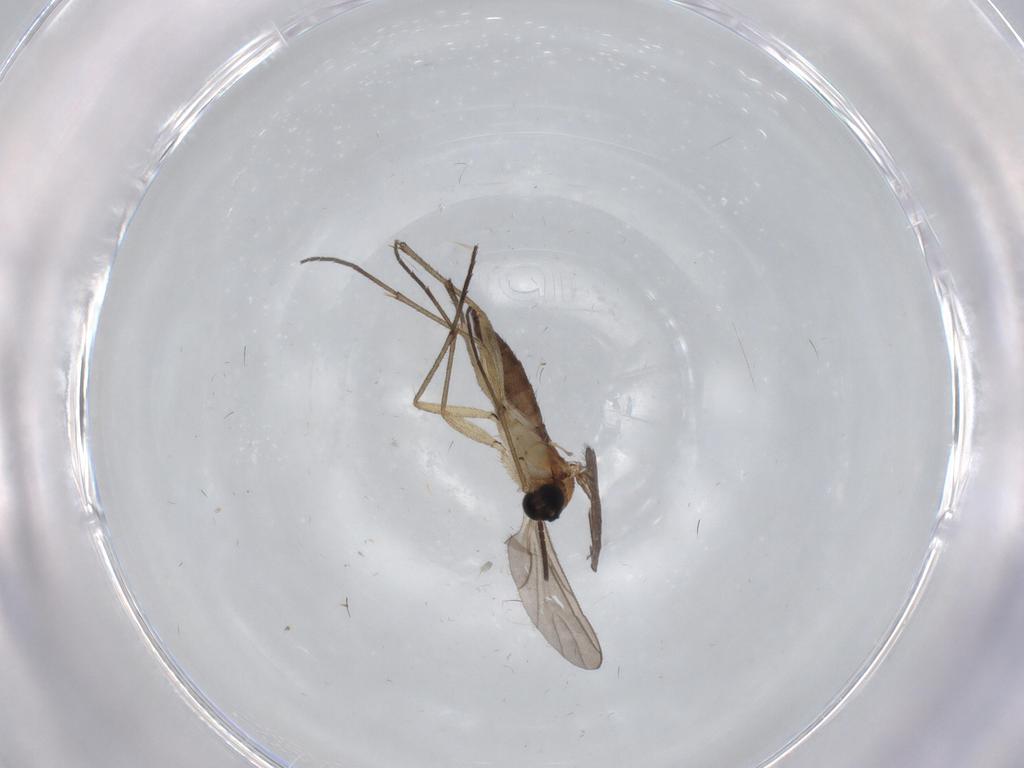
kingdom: Animalia
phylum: Arthropoda
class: Insecta
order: Diptera
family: Chironomidae
